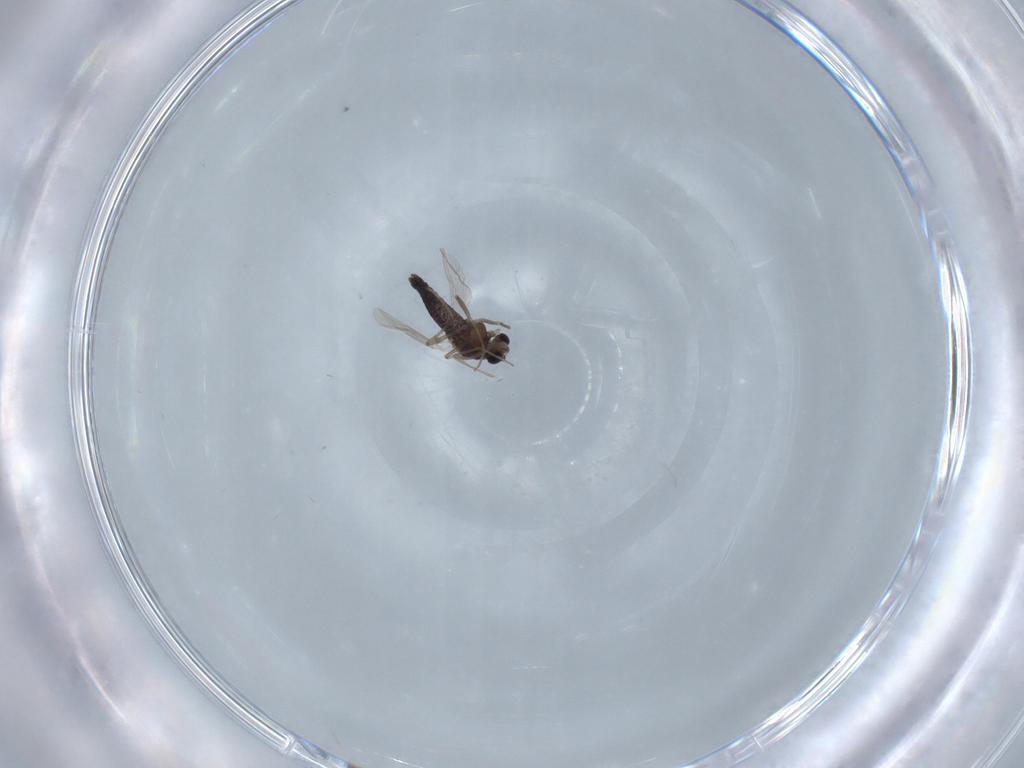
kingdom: Animalia
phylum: Arthropoda
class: Insecta
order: Diptera
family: Chironomidae
